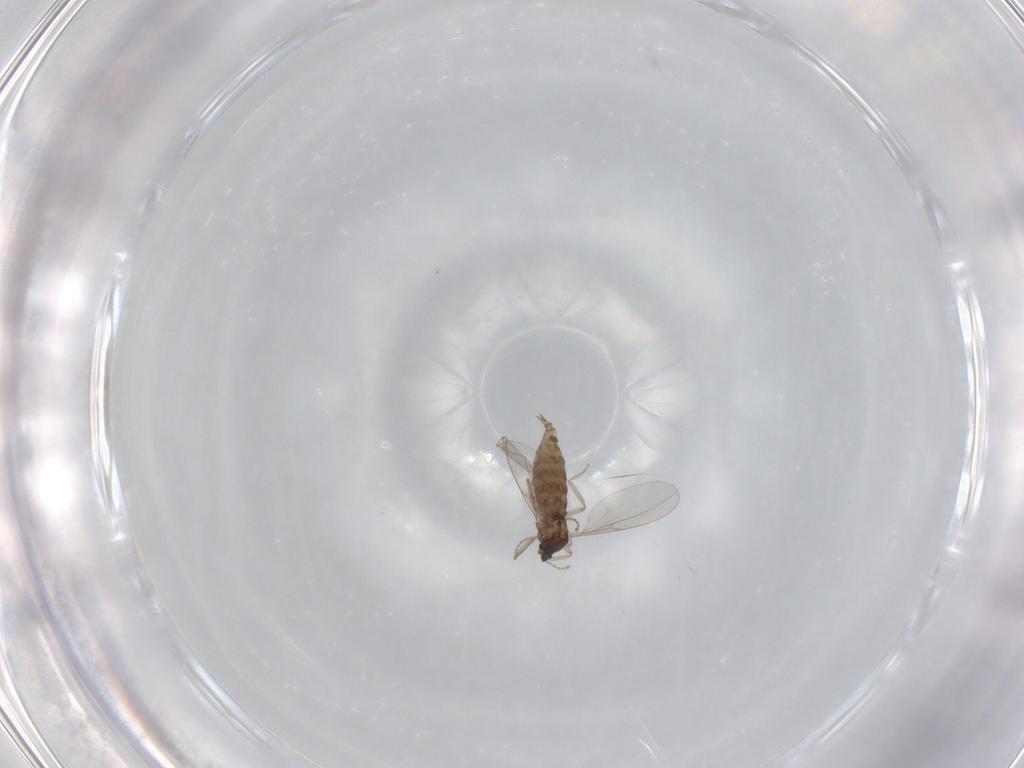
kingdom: Animalia
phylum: Arthropoda
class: Insecta
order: Diptera
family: Cecidomyiidae
